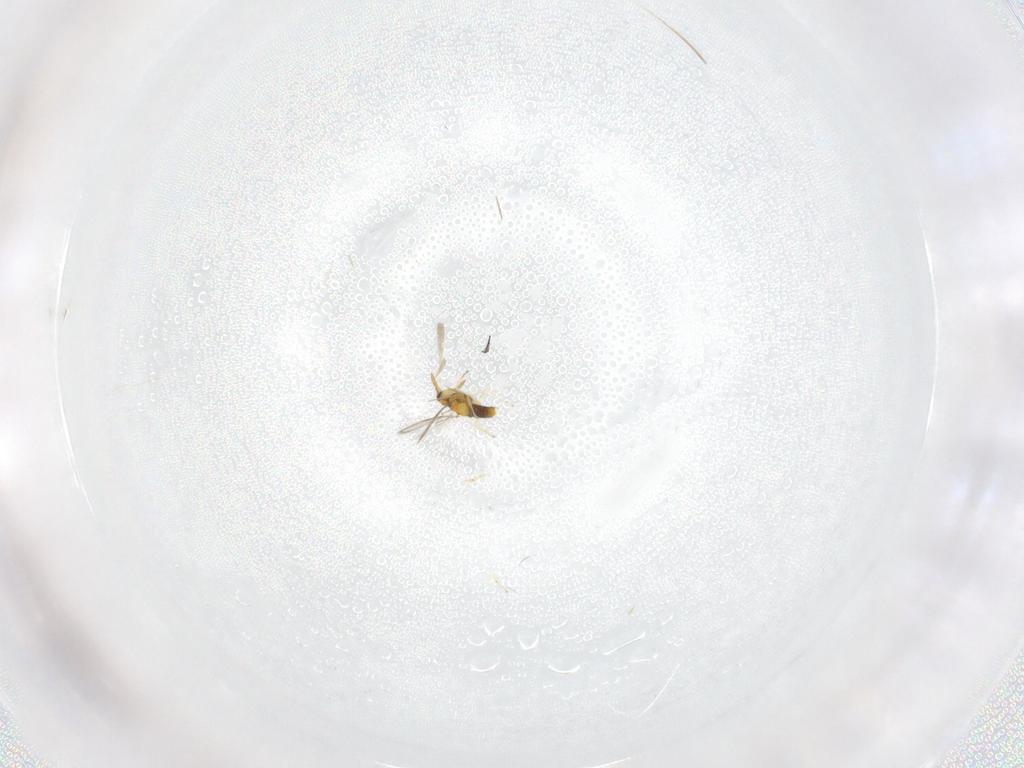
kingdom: Animalia
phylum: Arthropoda
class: Insecta
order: Hymenoptera
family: Aphelinidae
